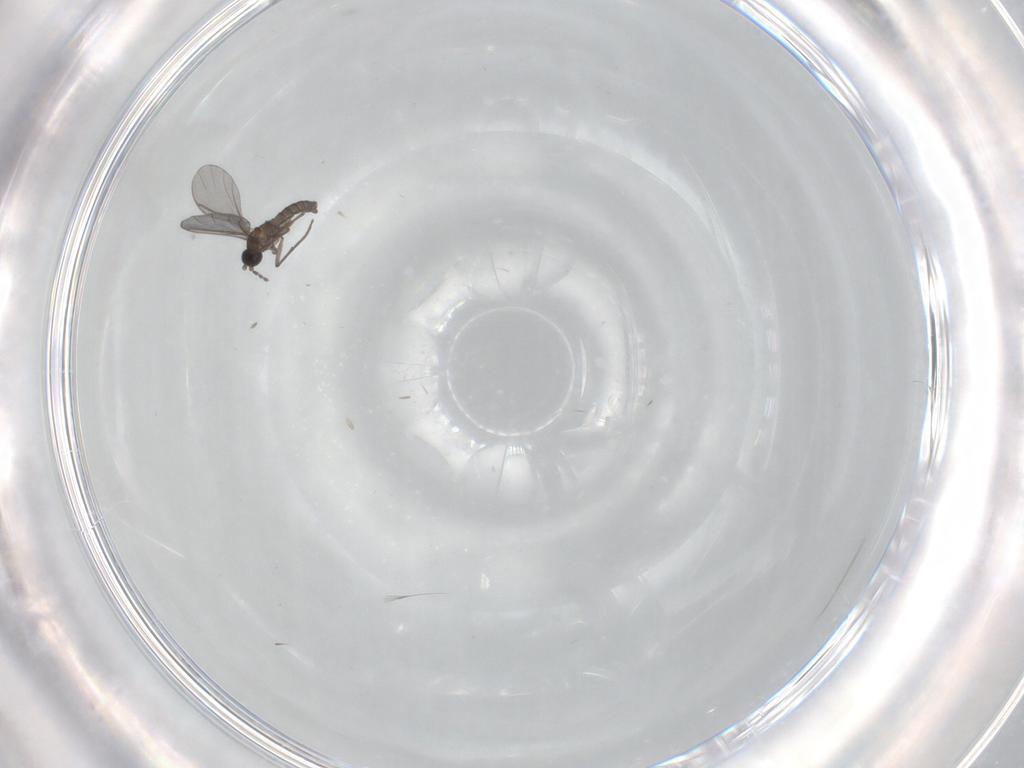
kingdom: Animalia
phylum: Arthropoda
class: Insecta
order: Diptera
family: Sciaridae
